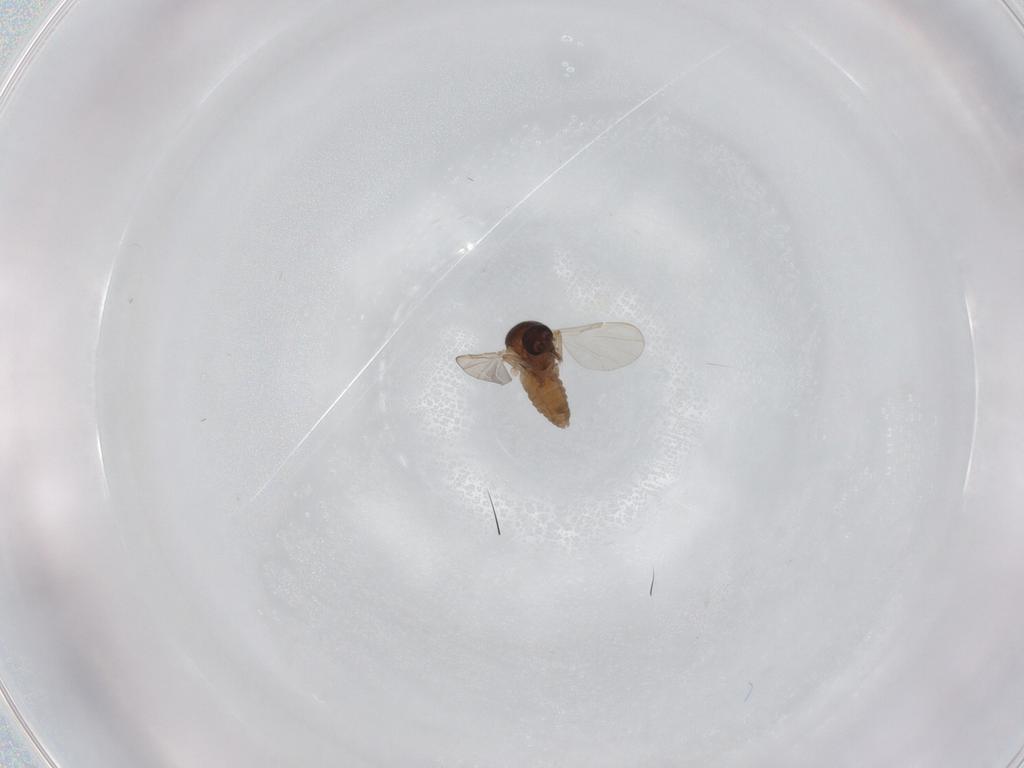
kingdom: Animalia
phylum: Arthropoda
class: Insecta
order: Diptera
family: Ceratopogonidae
